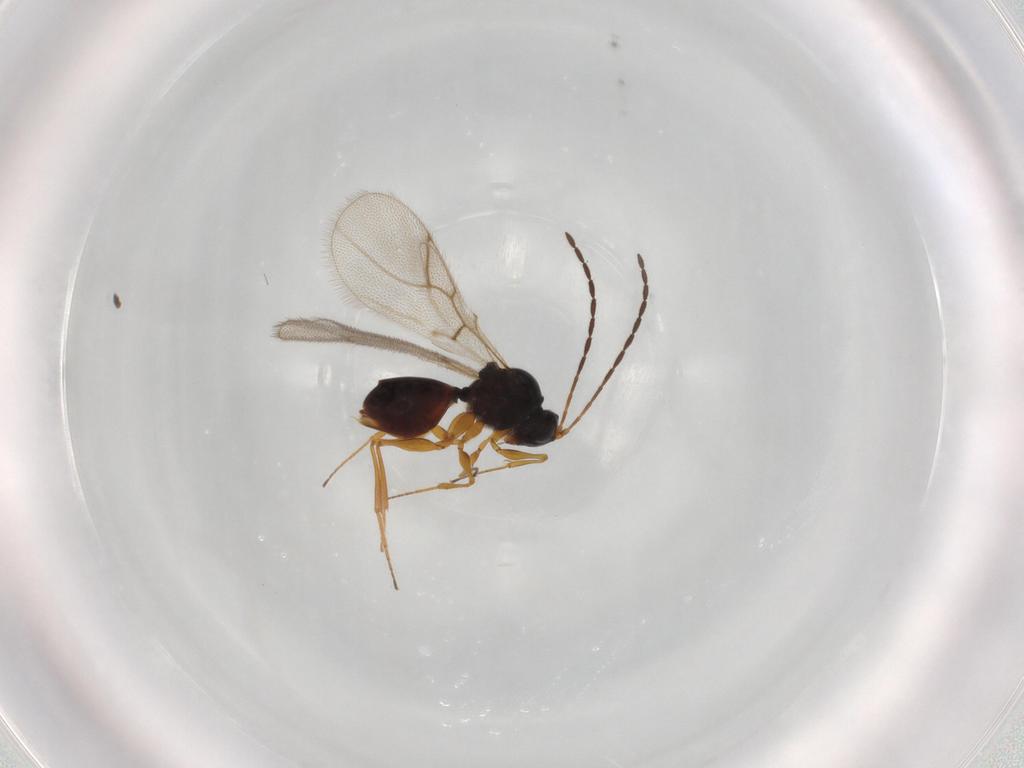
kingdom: Animalia
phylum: Arthropoda
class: Insecta
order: Hymenoptera
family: Figitidae
